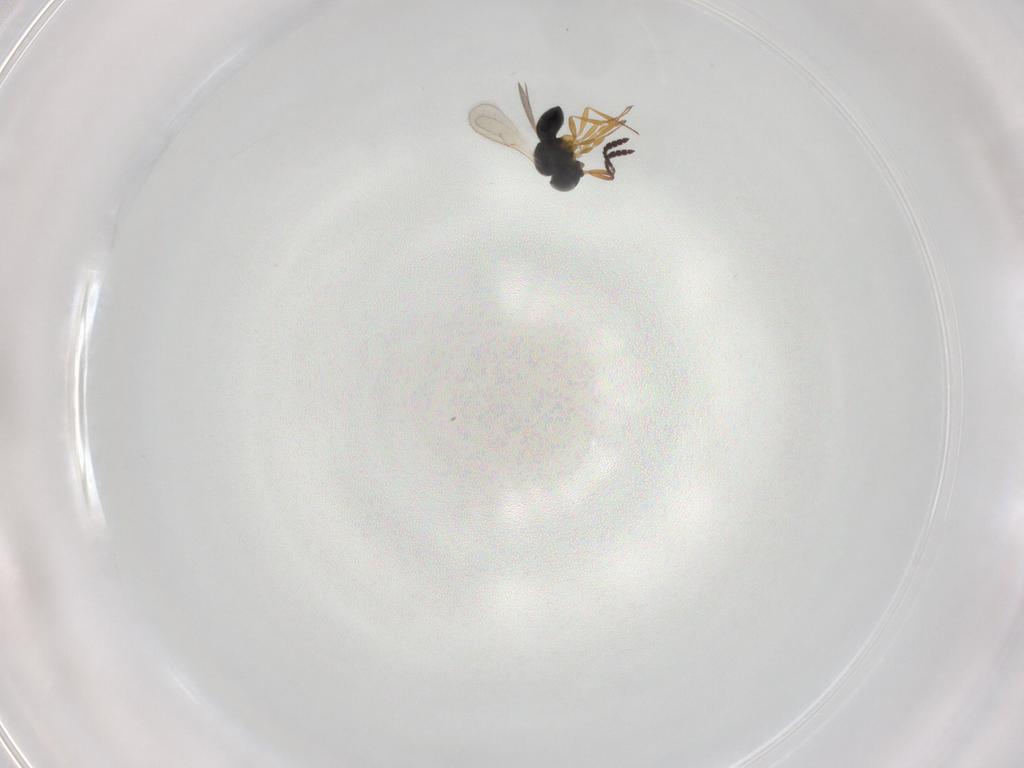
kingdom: Animalia
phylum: Arthropoda
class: Insecta
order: Hymenoptera
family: Scelionidae
